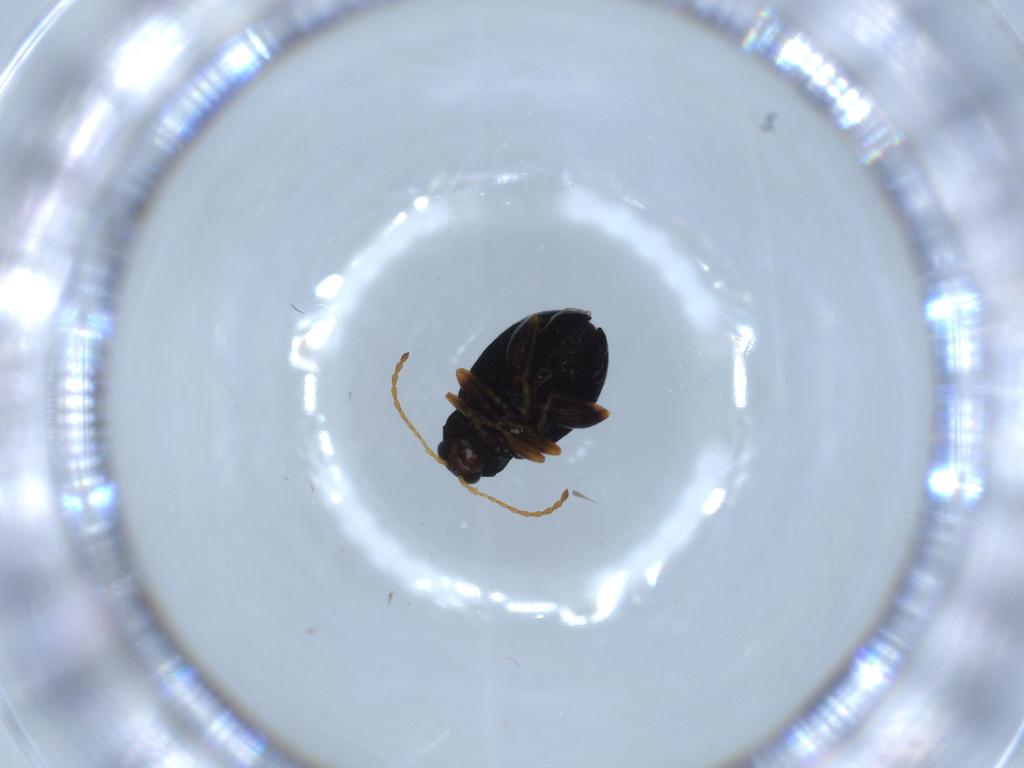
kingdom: Animalia
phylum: Arthropoda
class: Insecta
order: Coleoptera
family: Chrysomelidae
